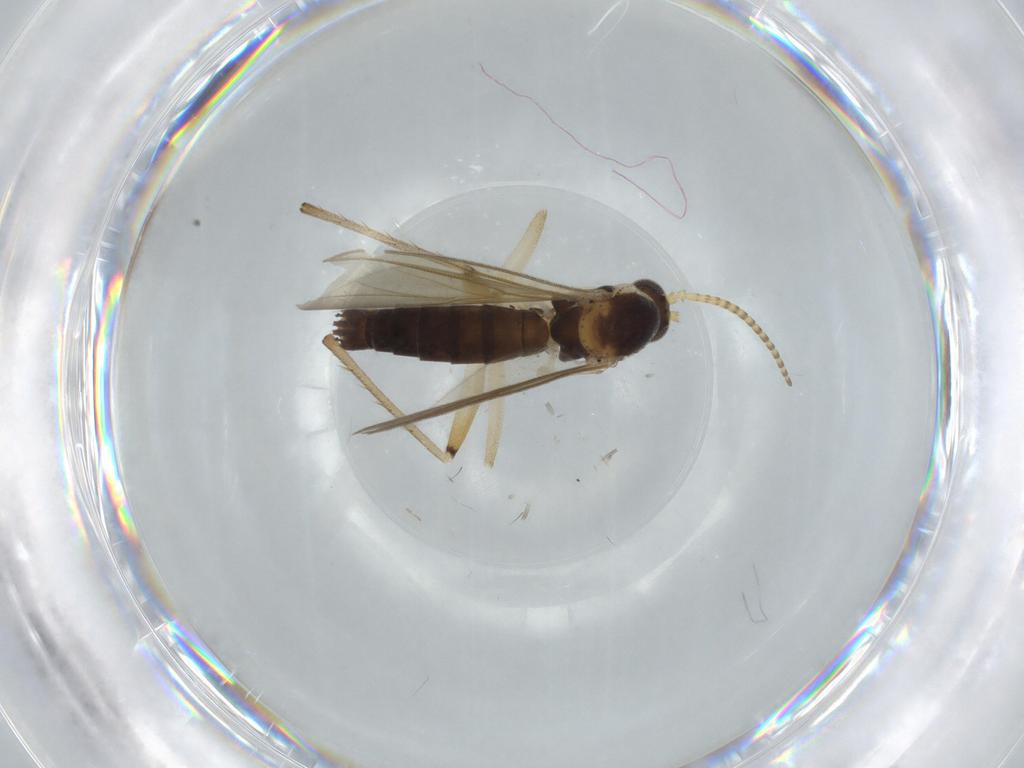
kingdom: Animalia
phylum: Arthropoda
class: Insecta
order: Diptera
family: Mycetophilidae
